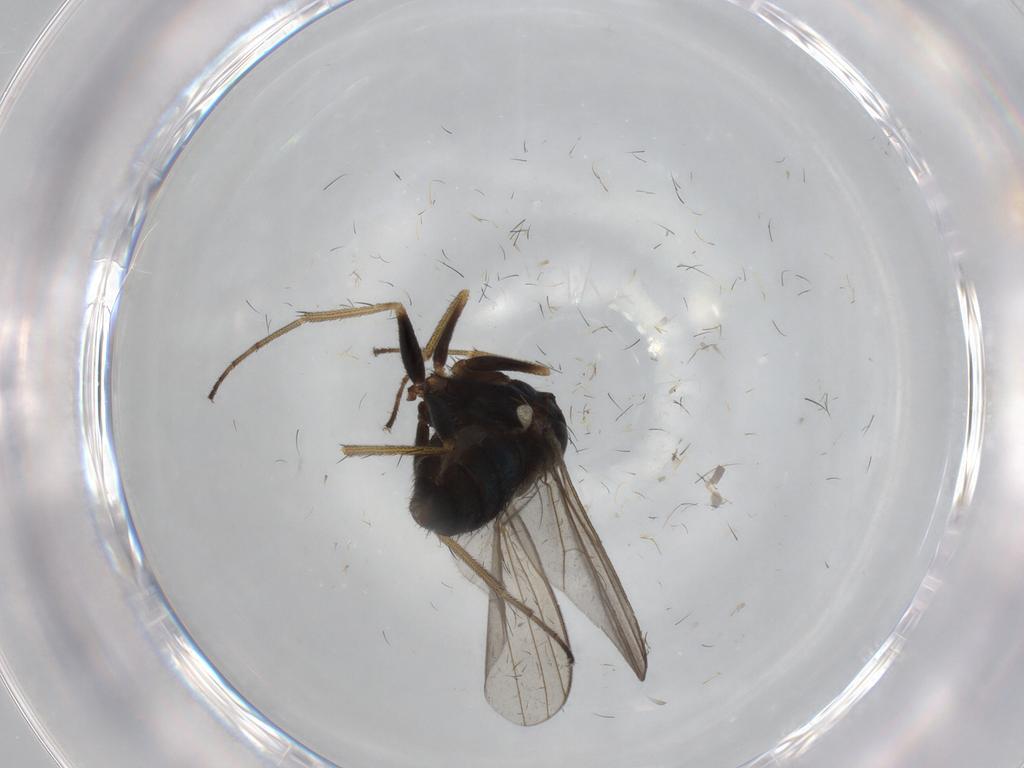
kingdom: Animalia
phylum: Arthropoda
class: Insecta
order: Diptera
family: Dolichopodidae
